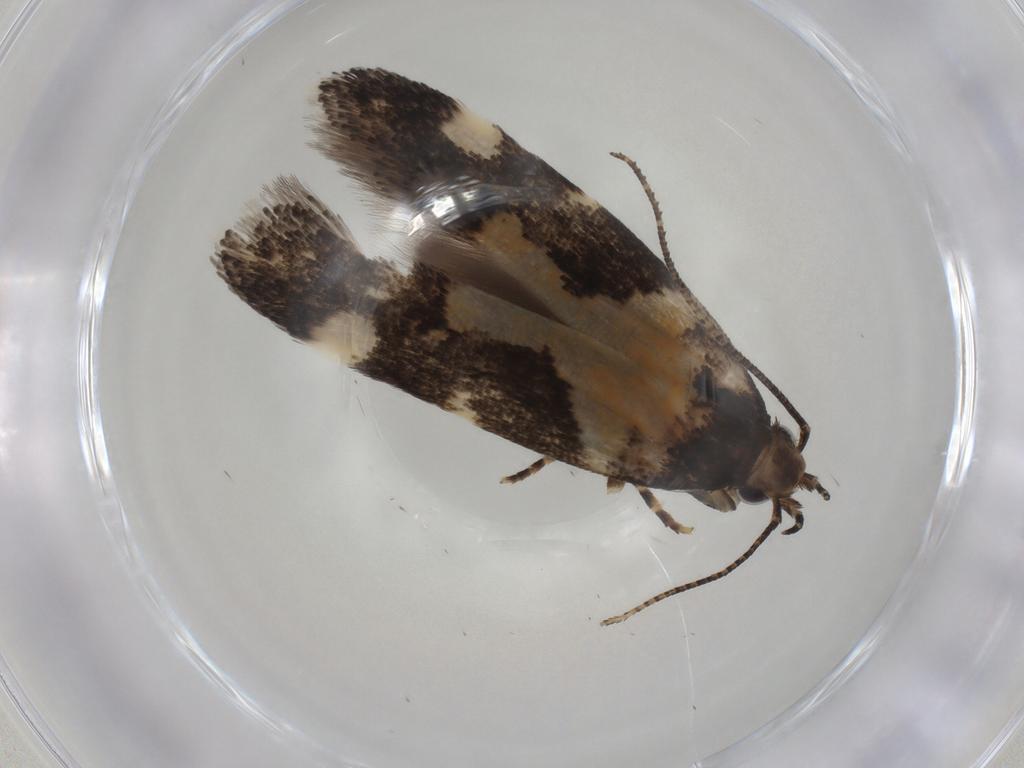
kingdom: Animalia
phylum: Arthropoda
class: Insecta
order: Lepidoptera
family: Gelechiidae
